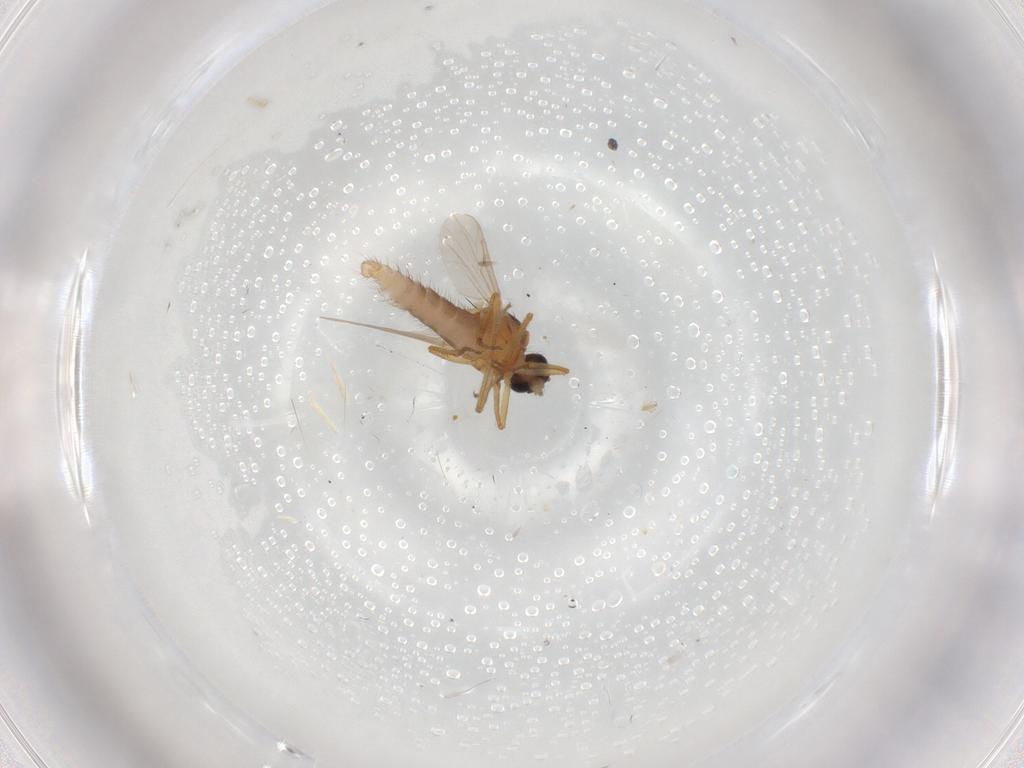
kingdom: Animalia
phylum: Arthropoda
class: Insecta
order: Diptera
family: Ceratopogonidae
